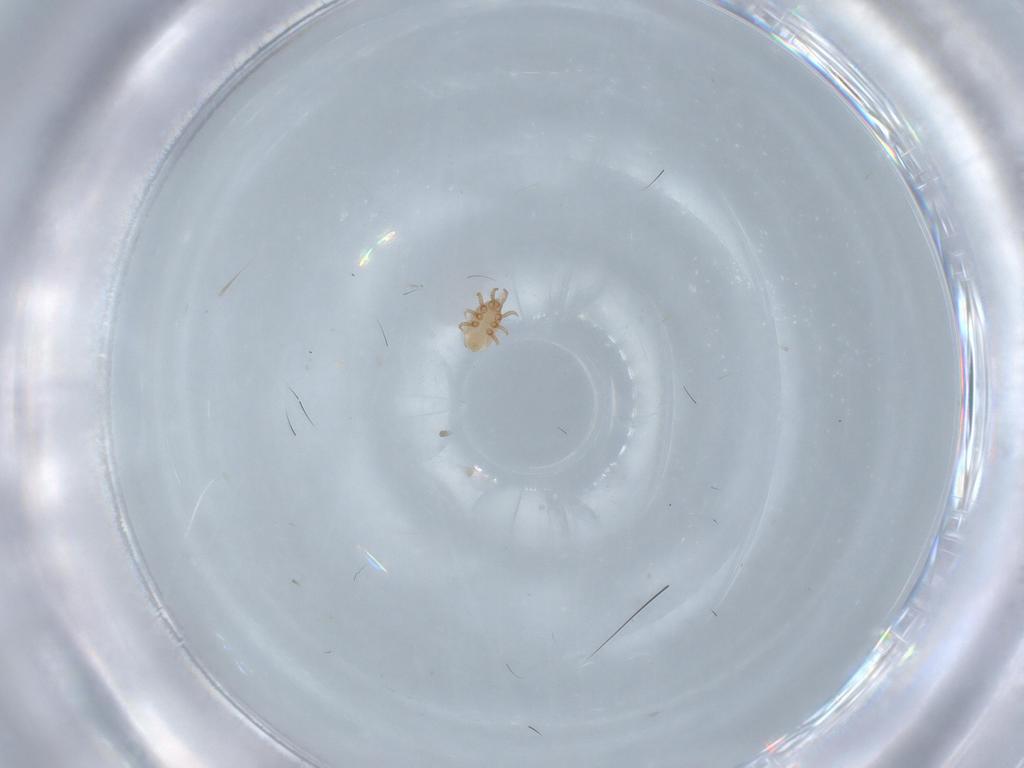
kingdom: Animalia
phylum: Arthropoda
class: Arachnida
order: Mesostigmata
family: Dinychidae
